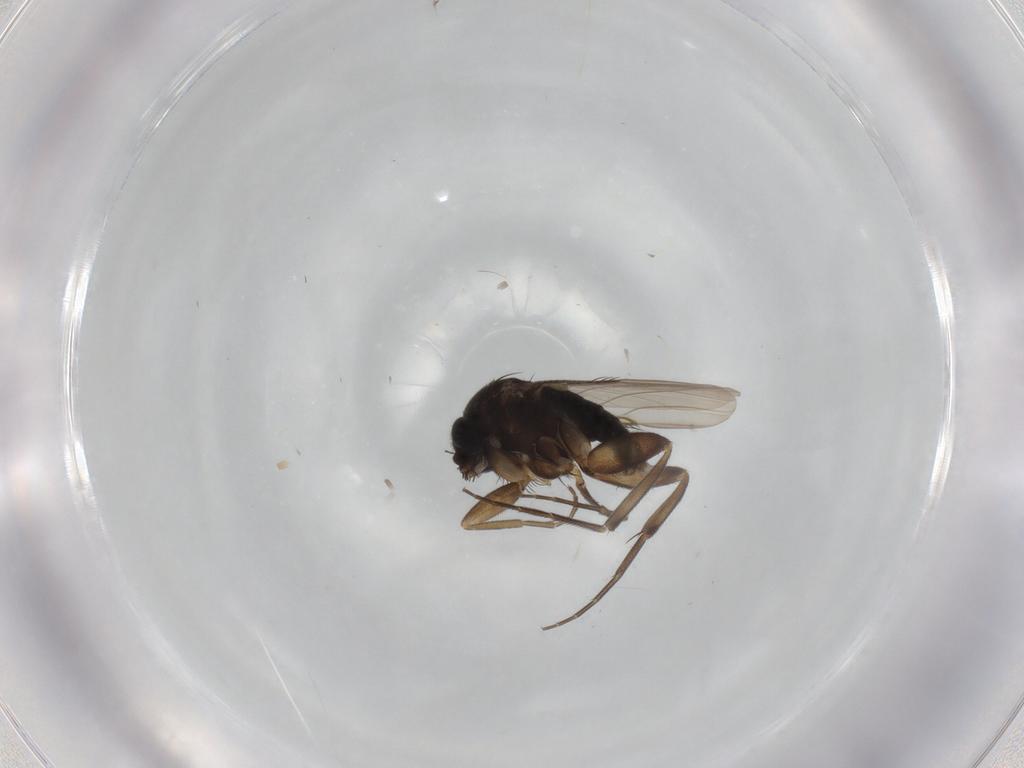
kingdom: Animalia
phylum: Arthropoda
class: Insecta
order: Diptera
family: Phoridae
